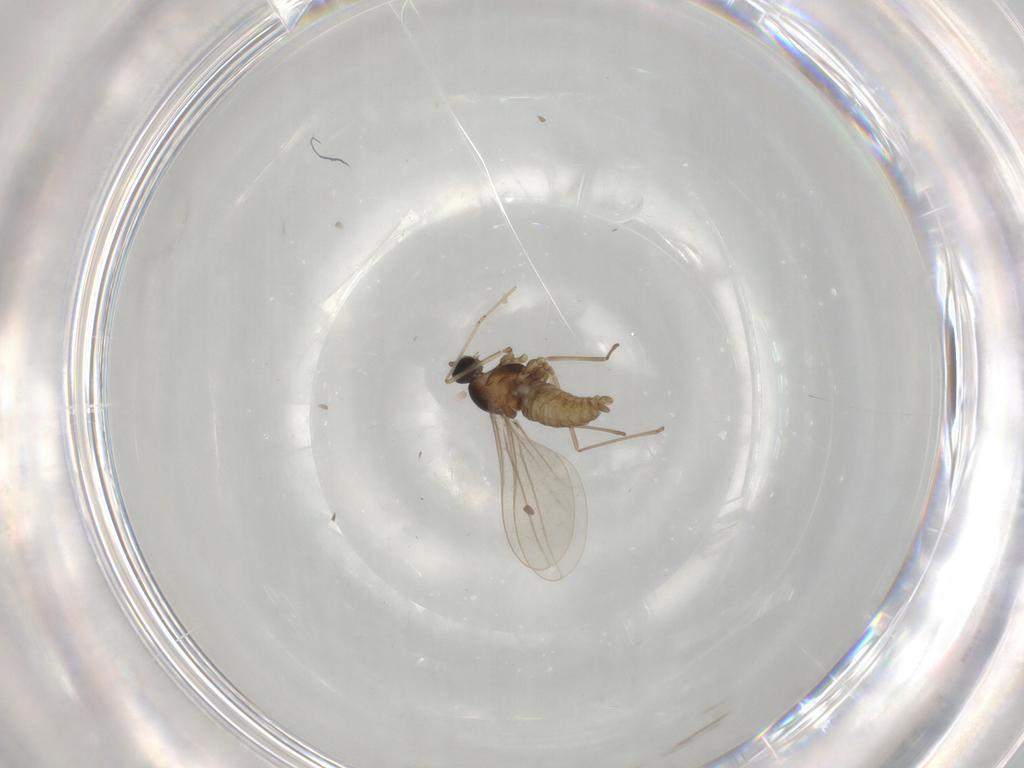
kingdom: Animalia
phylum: Arthropoda
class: Insecta
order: Diptera
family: Cecidomyiidae
